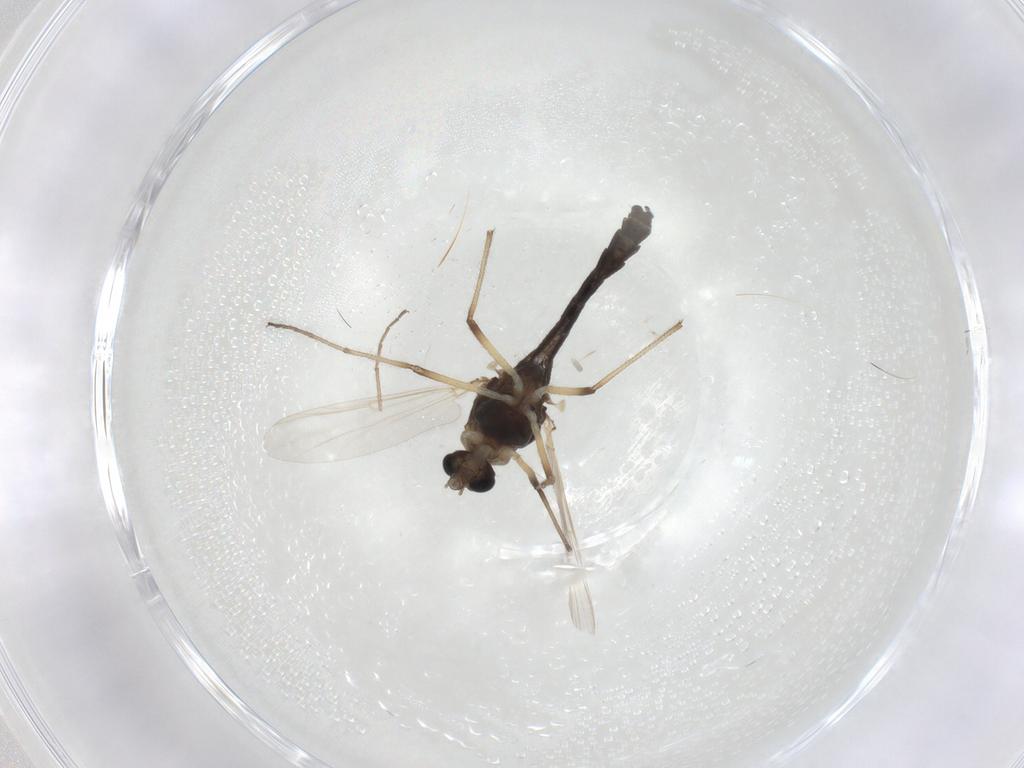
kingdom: Animalia
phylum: Arthropoda
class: Insecta
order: Diptera
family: Chironomidae
